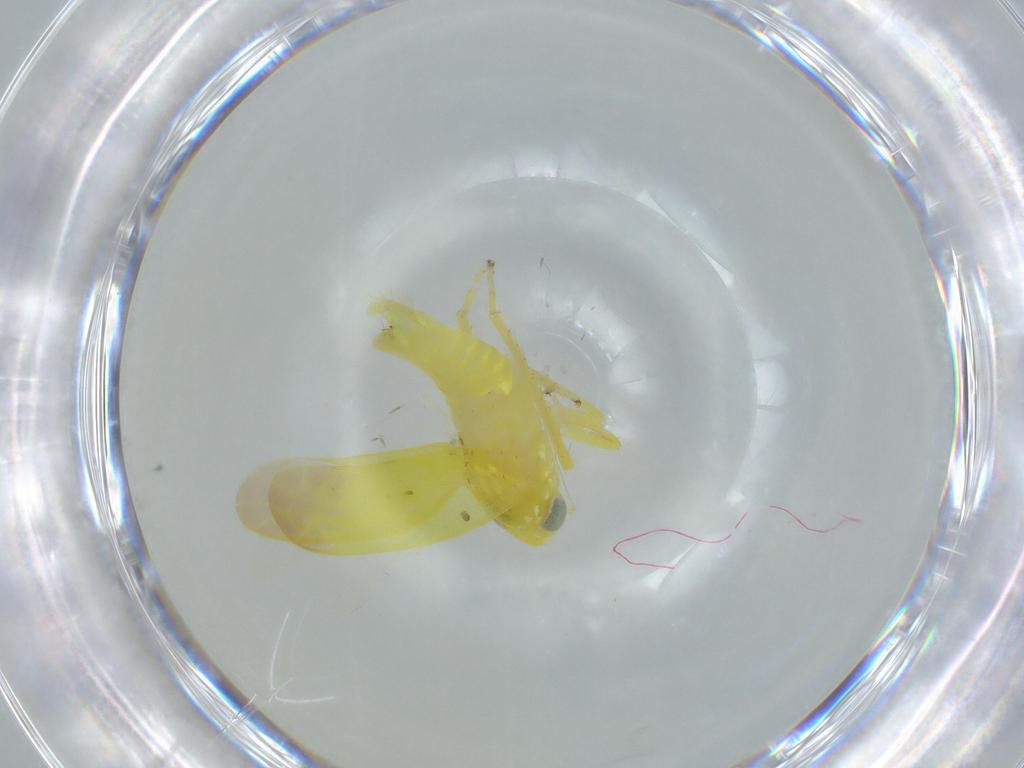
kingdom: Animalia
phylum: Arthropoda
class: Insecta
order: Hemiptera
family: Cicadellidae
